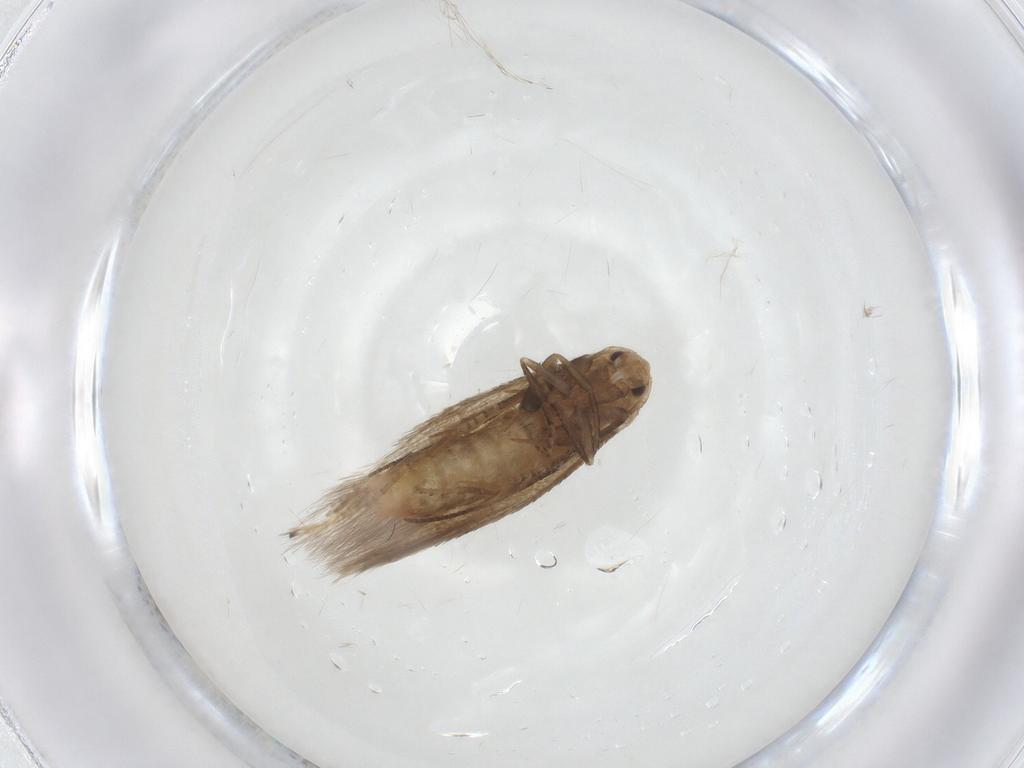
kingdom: Animalia
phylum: Arthropoda
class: Insecta
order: Lepidoptera
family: Bucculatricidae
